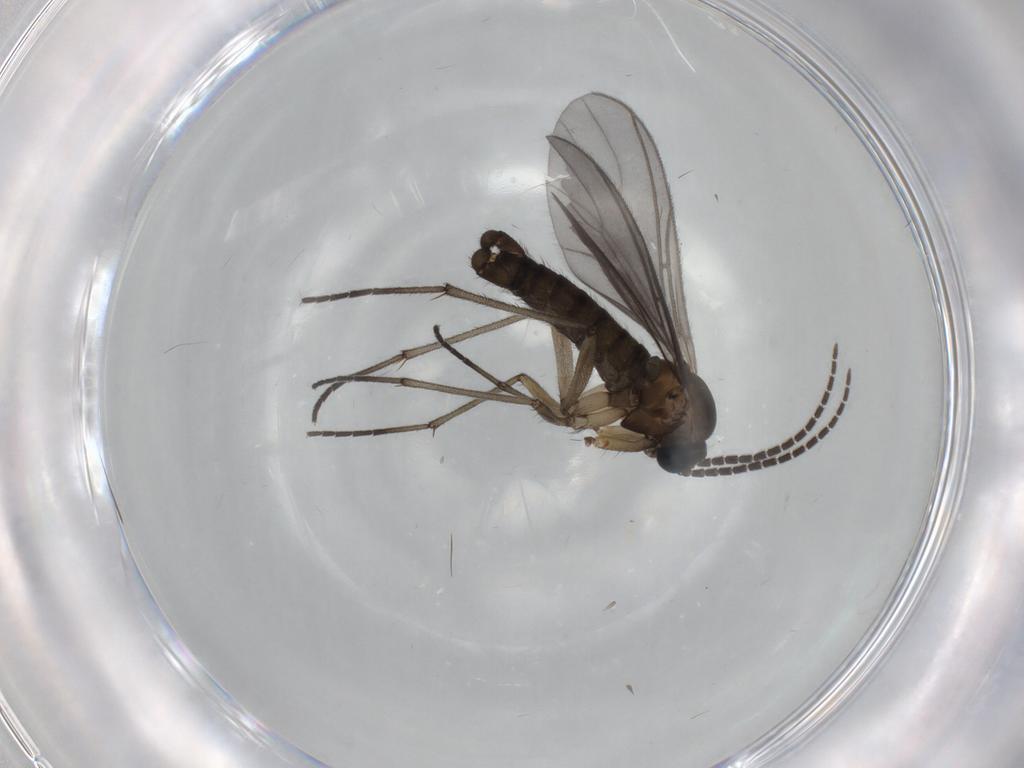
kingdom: Animalia
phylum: Arthropoda
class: Insecta
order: Diptera
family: Sciaridae
